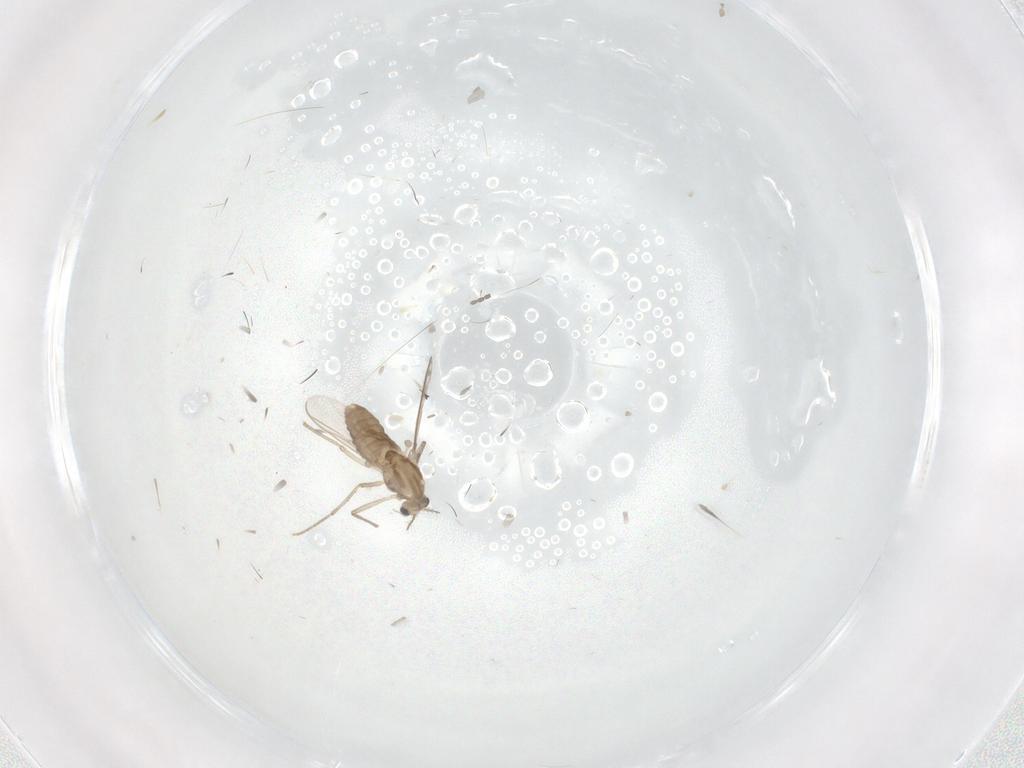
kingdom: Animalia
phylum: Arthropoda
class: Insecta
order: Diptera
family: Chironomidae
